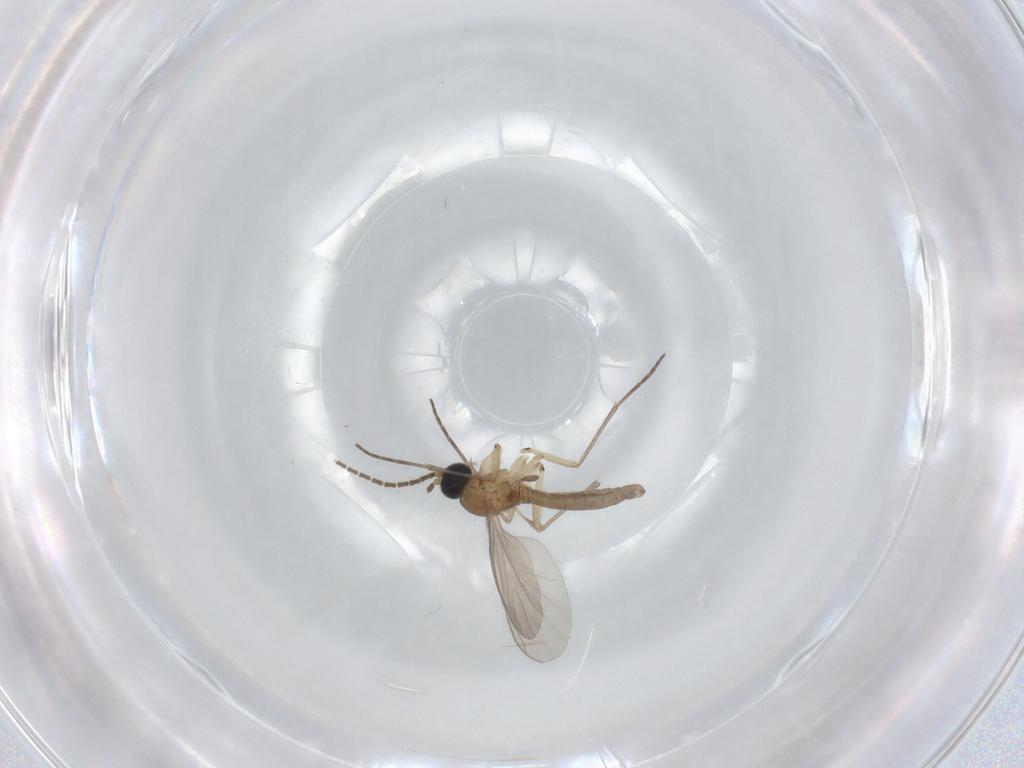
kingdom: Animalia
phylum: Arthropoda
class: Insecta
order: Diptera
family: Sciaridae
